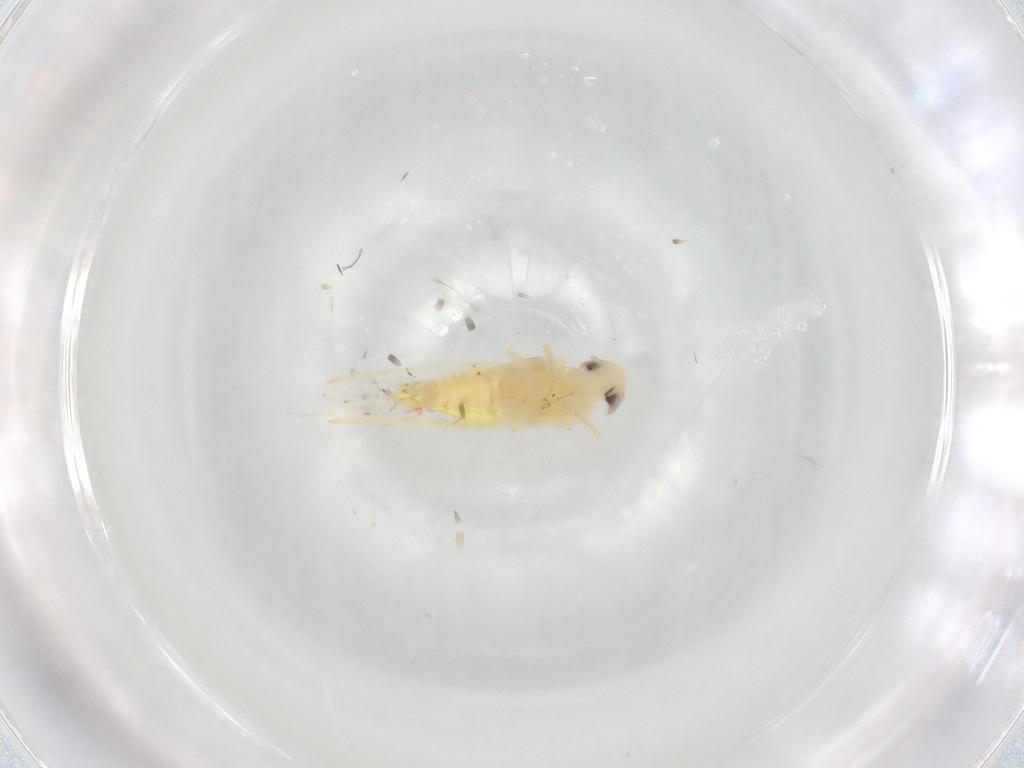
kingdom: Animalia
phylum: Arthropoda
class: Insecta
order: Hemiptera
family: Cicadellidae
